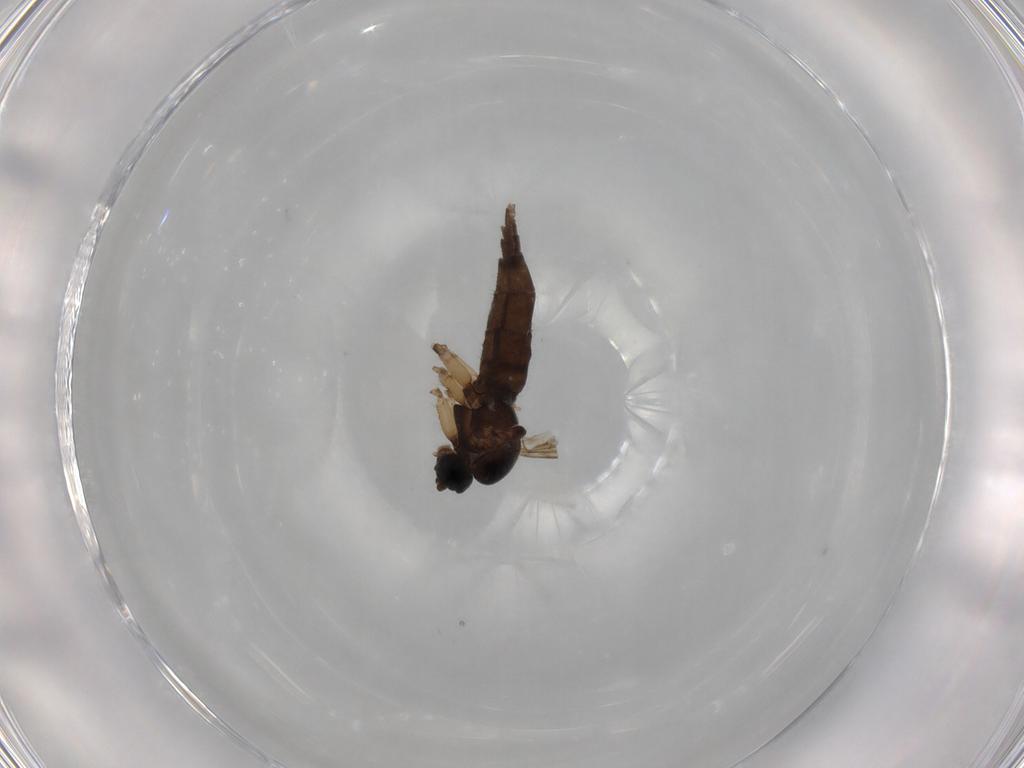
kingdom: Animalia
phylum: Arthropoda
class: Insecta
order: Diptera
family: Sciaridae
